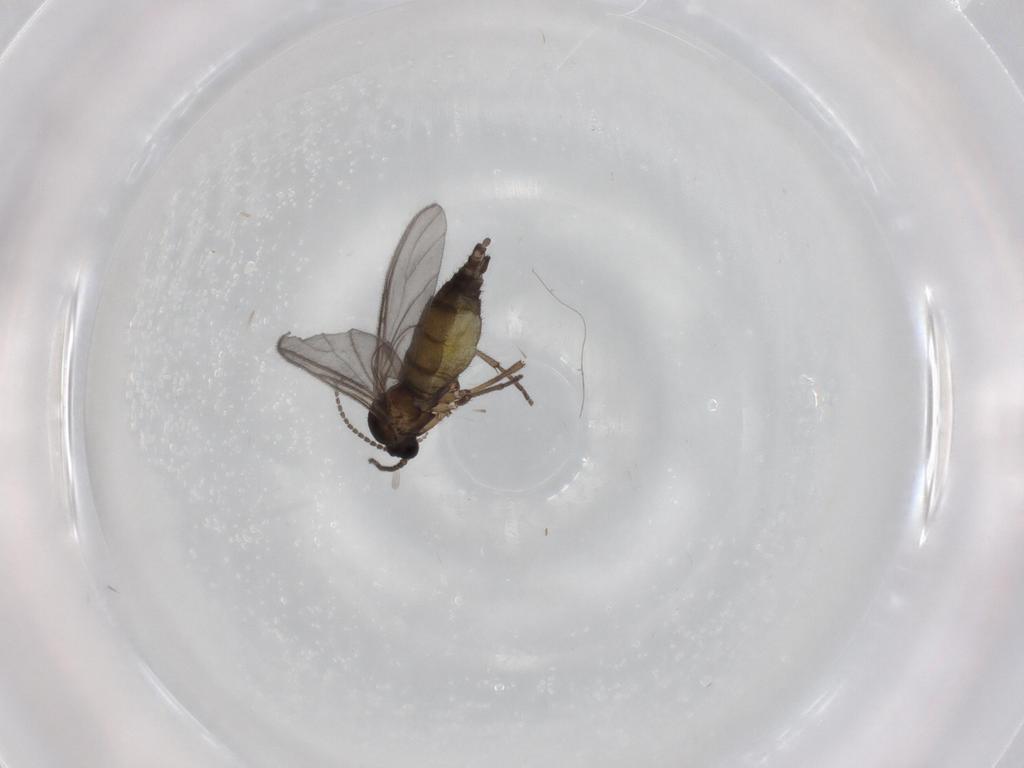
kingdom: Animalia
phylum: Arthropoda
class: Insecta
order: Diptera
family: Sciaridae
